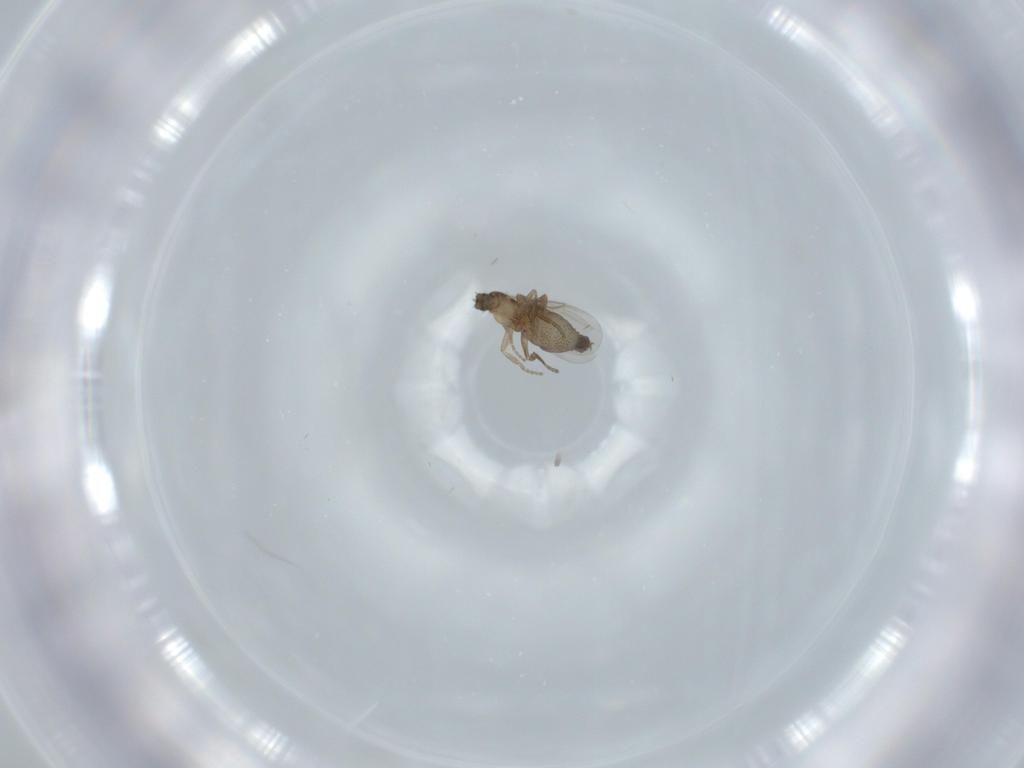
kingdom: Animalia
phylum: Arthropoda
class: Insecta
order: Diptera
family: Phoridae
